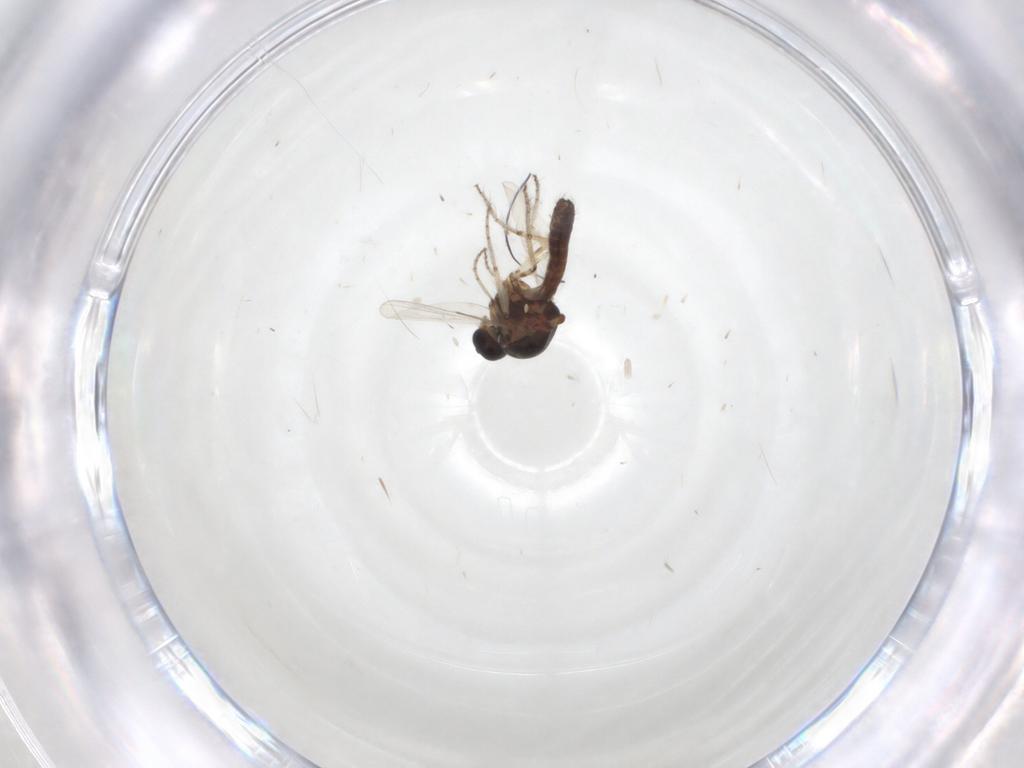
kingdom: Animalia
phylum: Arthropoda
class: Insecta
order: Diptera
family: Ceratopogonidae
